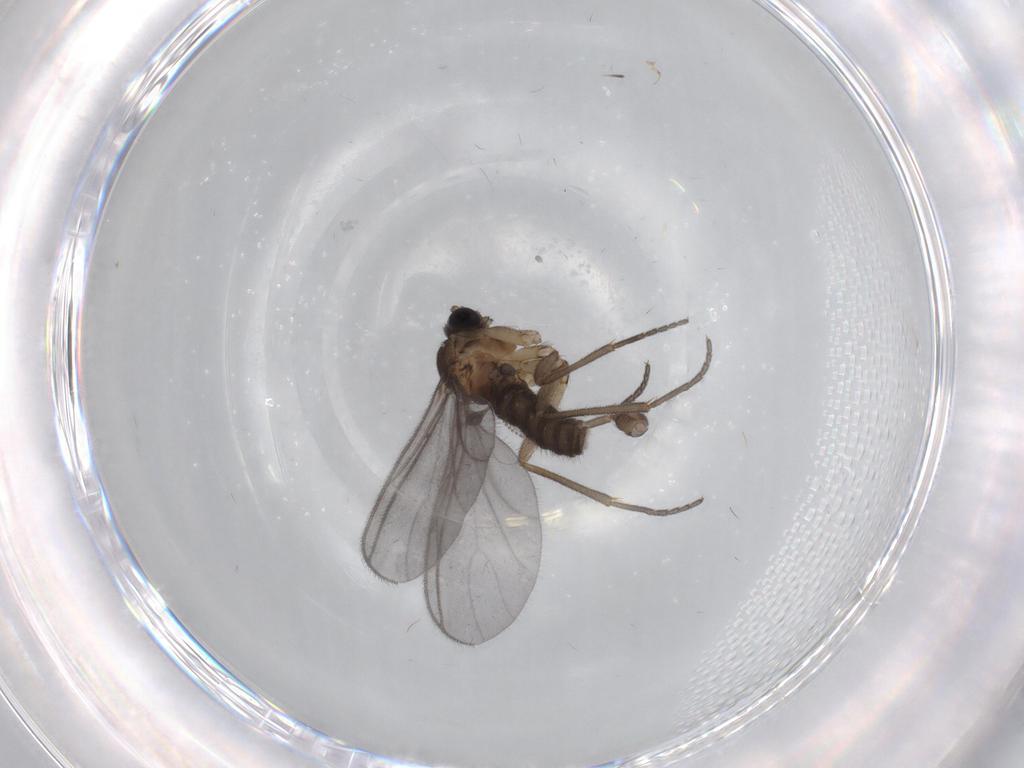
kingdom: Animalia
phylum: Arthropoda
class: Insecta
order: Diptera
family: Sciaridae
